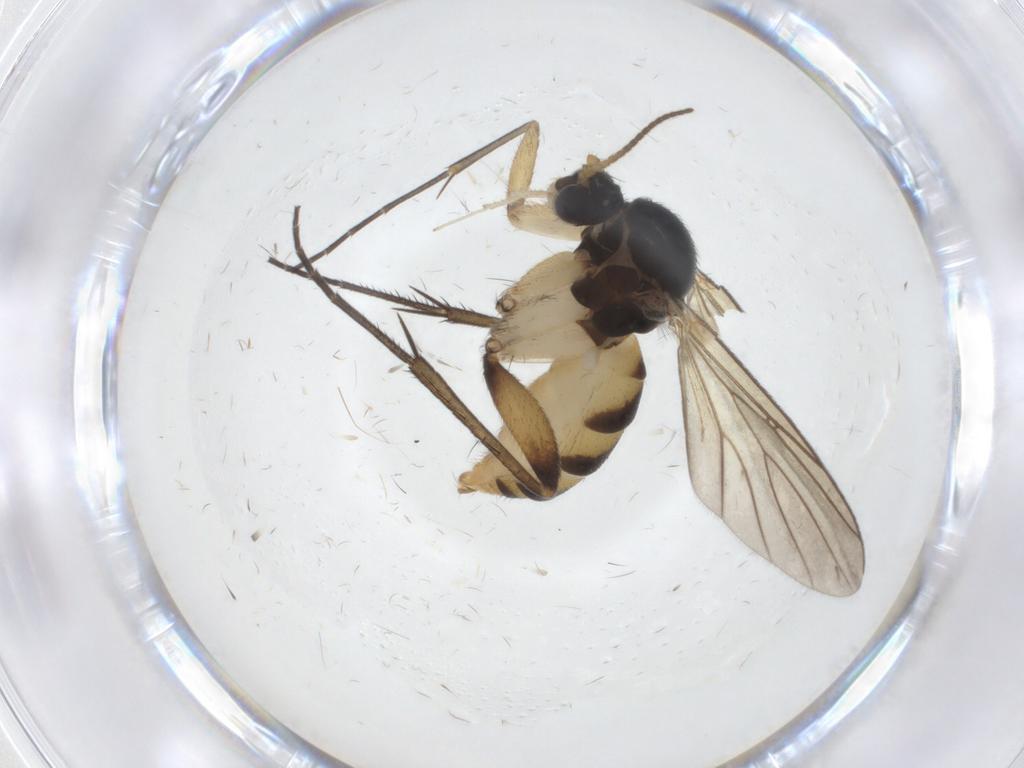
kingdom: Animalia
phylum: Arthropoda
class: Insecta
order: Diptera
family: Mycetophilidae
